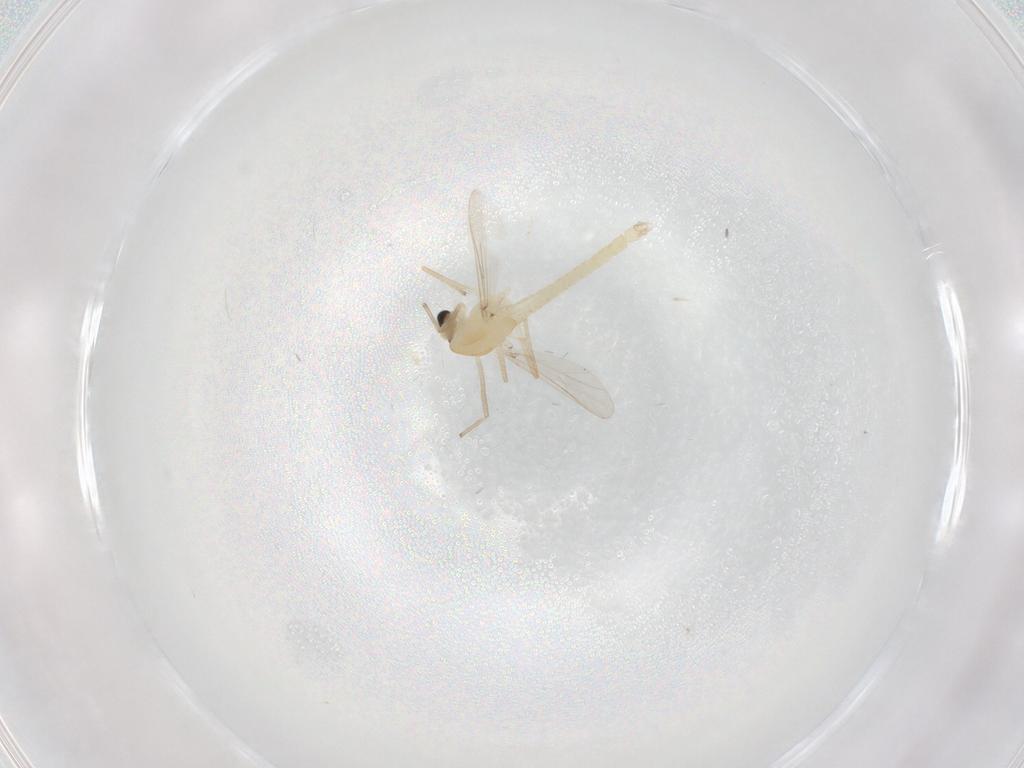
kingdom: Animalia
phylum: Arthropoda
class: Insecta
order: Diptera
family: Chironomidae
